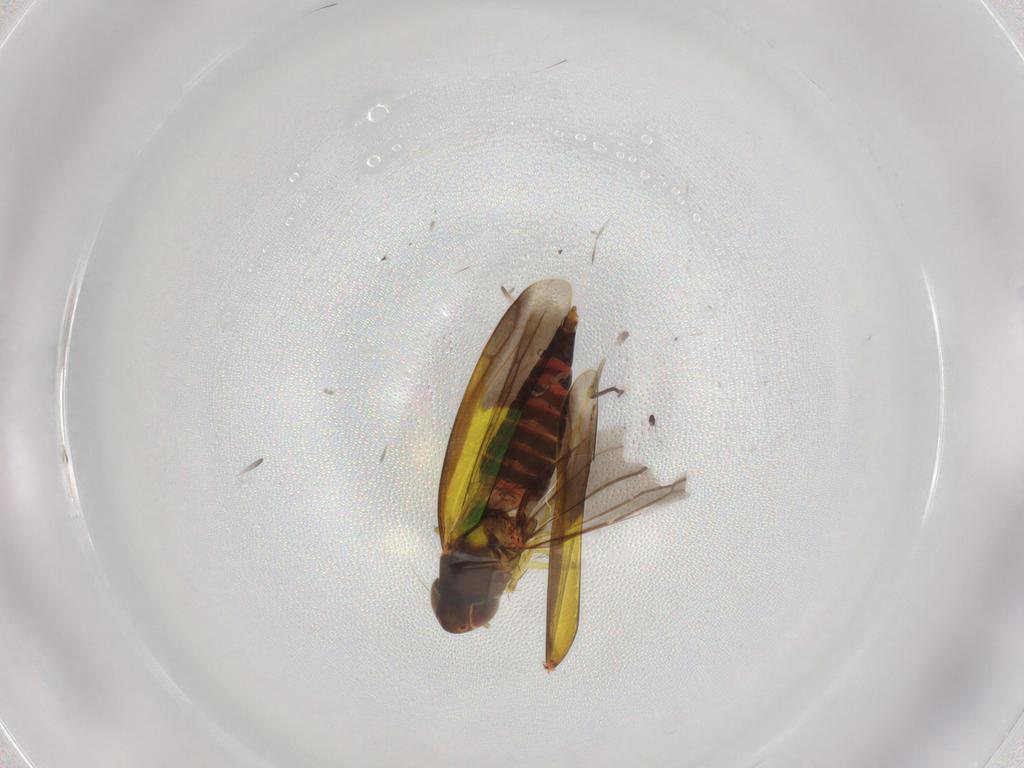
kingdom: Animalia
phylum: Arthropoda
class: Insecta
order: Hemiptera
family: Cicadellidae
